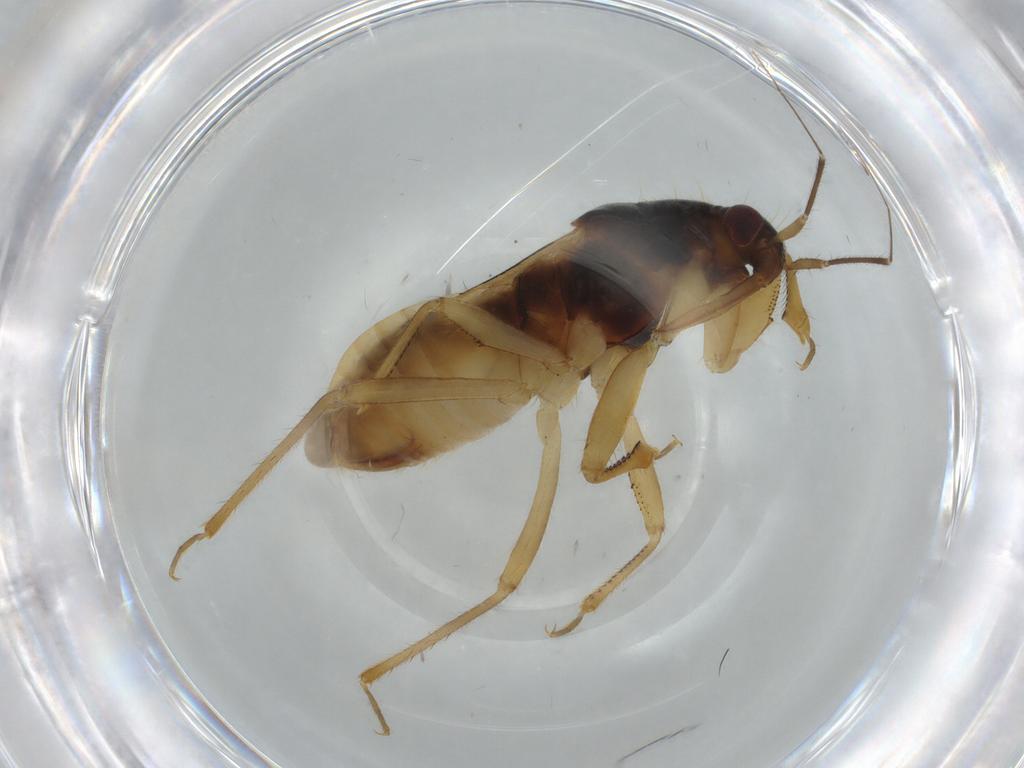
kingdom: Animalia
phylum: Arthropoda
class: Insecta
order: Hemiptera
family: Nabidae
